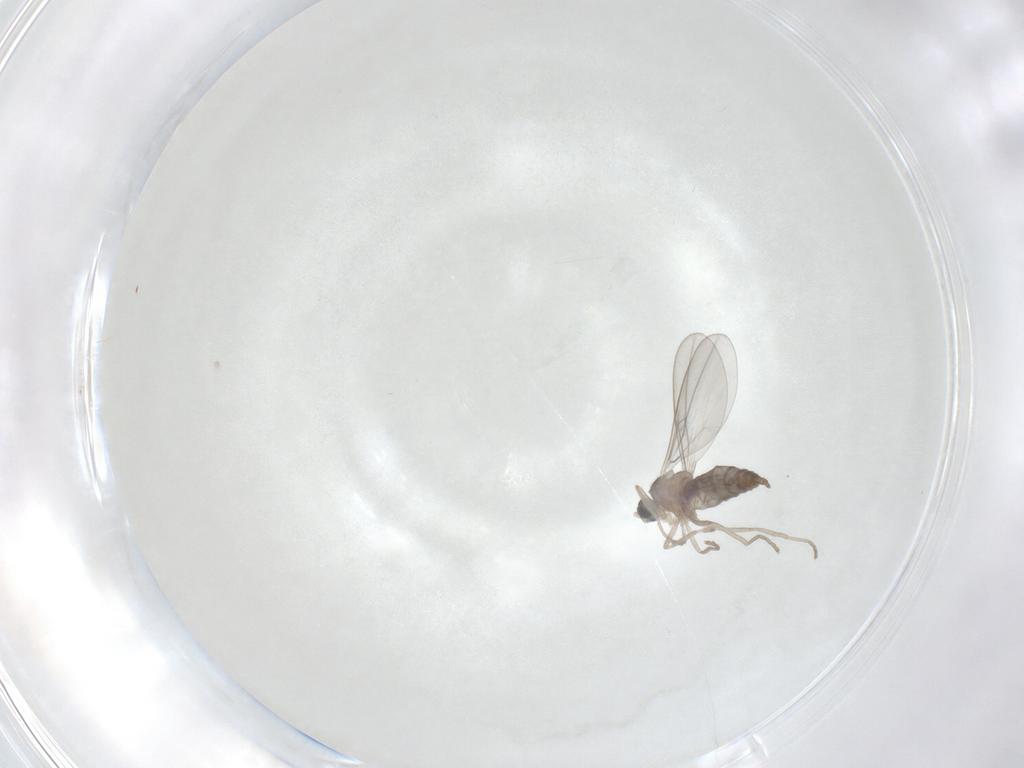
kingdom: Animalia
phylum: Arthropoda
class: Insecta
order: Diptera
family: Cecidomyiidae
